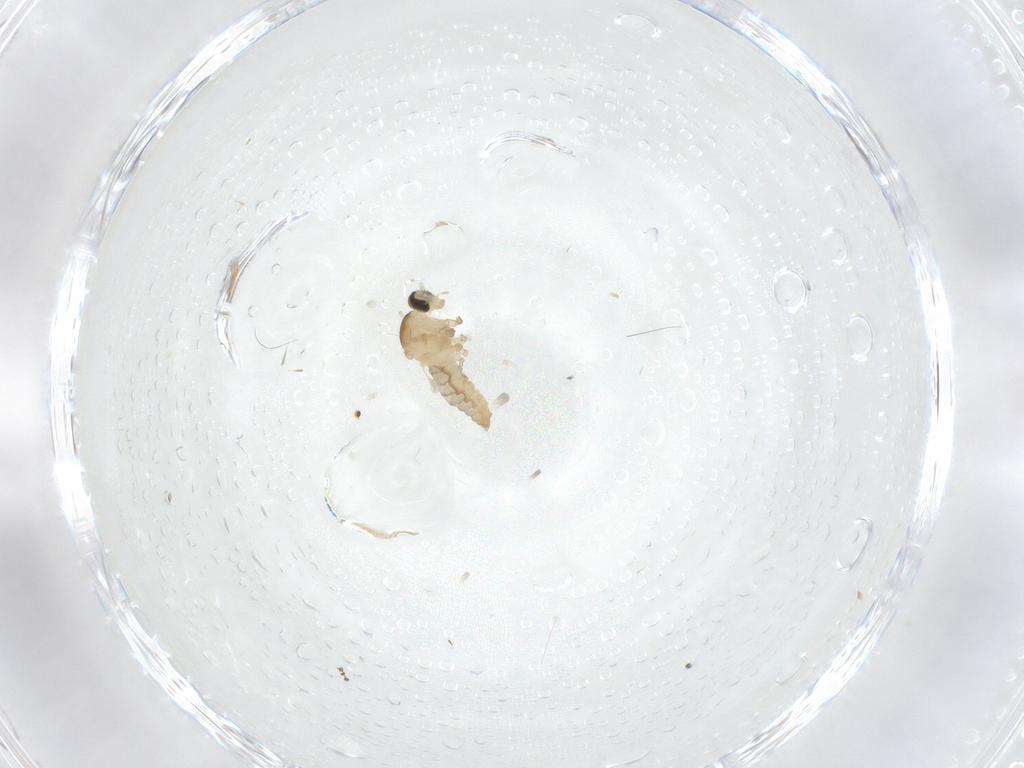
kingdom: Animalia
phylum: Arthropoda
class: Insecta
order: Diptera
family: Cecidomyiidae
